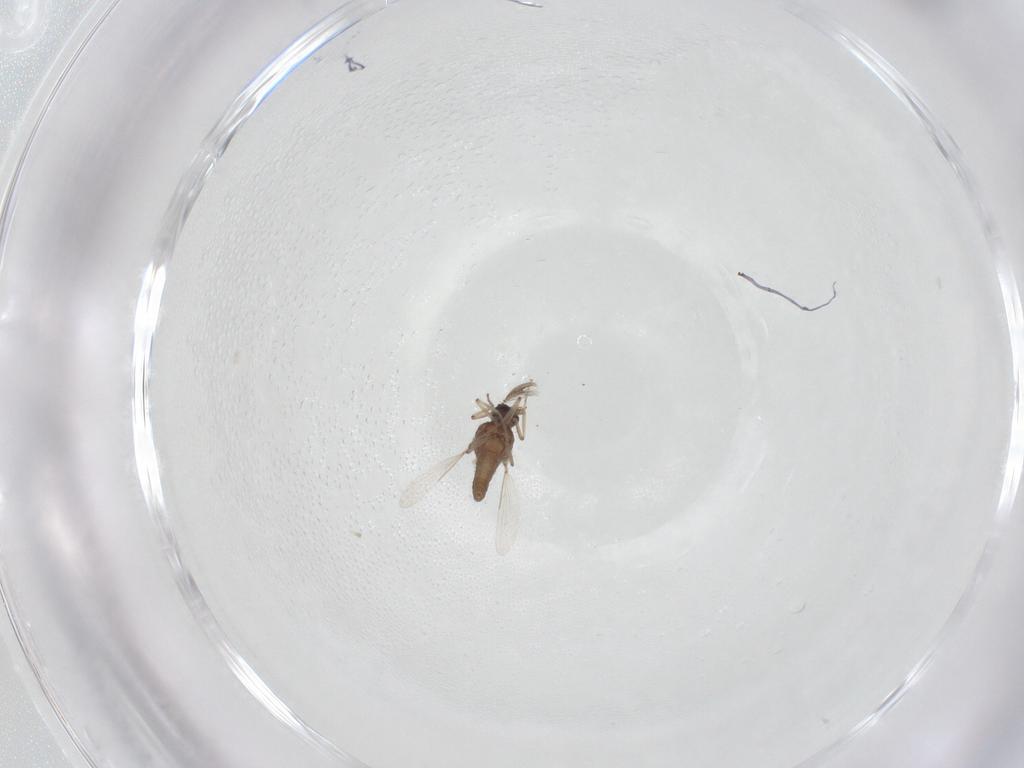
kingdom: Animalia
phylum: Arthropoda
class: Insecta
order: Diptera
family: Ceratopogonidae
